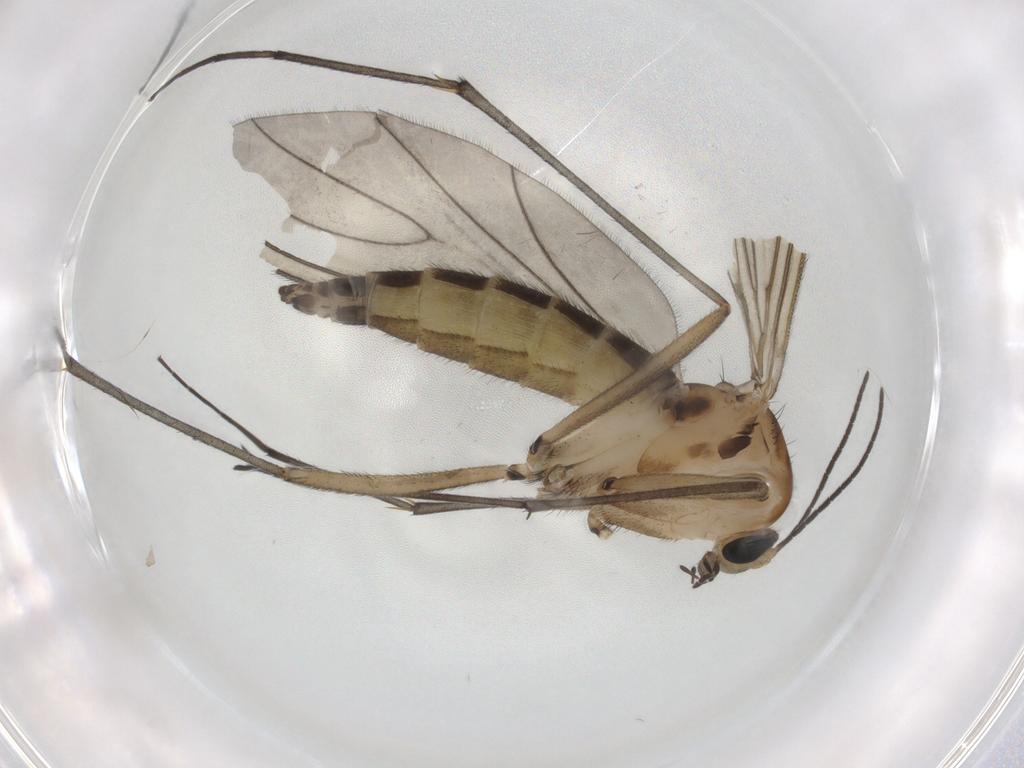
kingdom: Animalia
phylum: Arthropoda
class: Insecta
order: Diptera
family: Sciaridae
